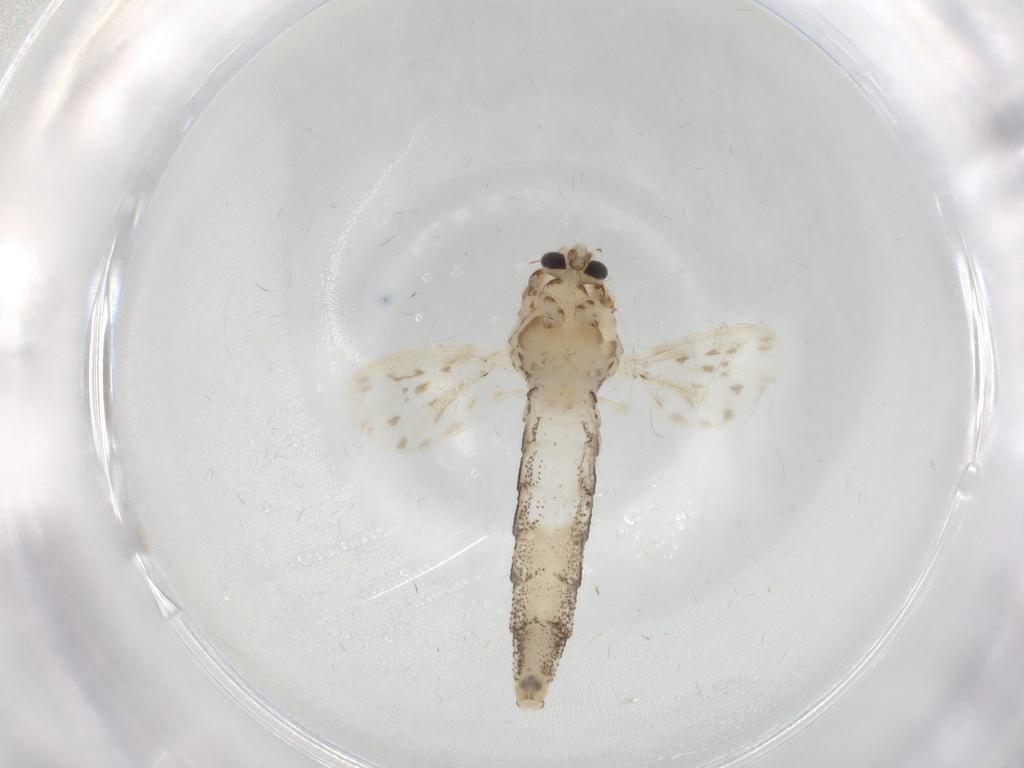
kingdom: Animalia
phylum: Arthropoda
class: Insecta
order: Diptera
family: Chaoboridae
